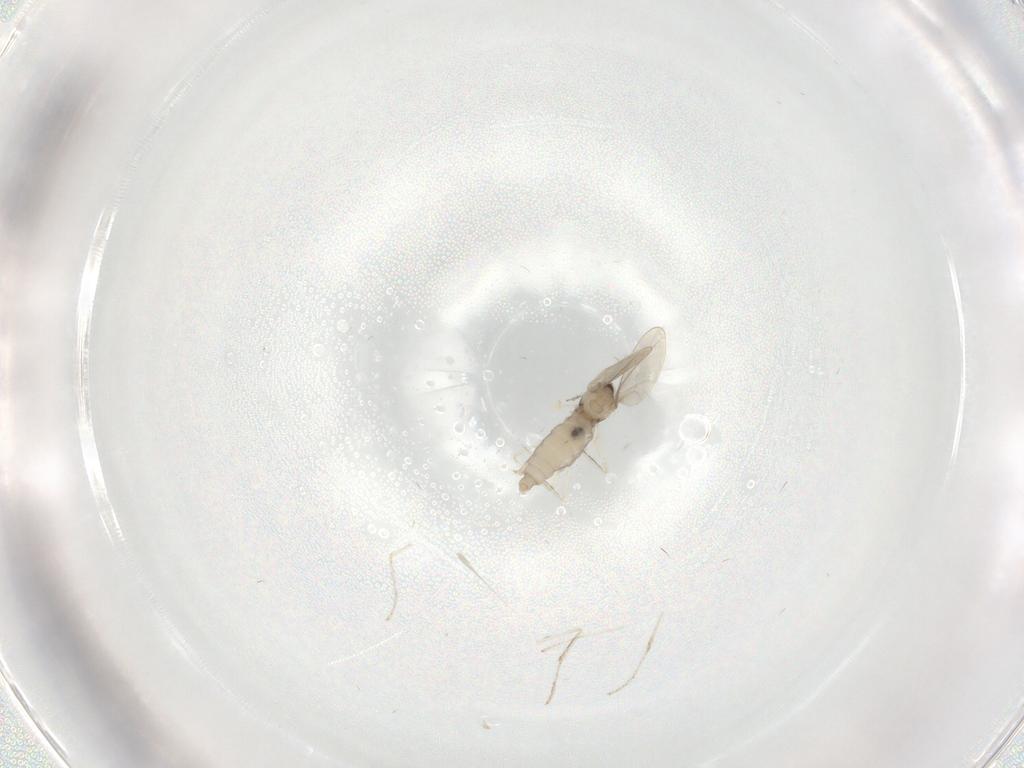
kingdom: Animalia
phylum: Arthropoda
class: Insecta
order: Diptera
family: Cecidomyiidae
